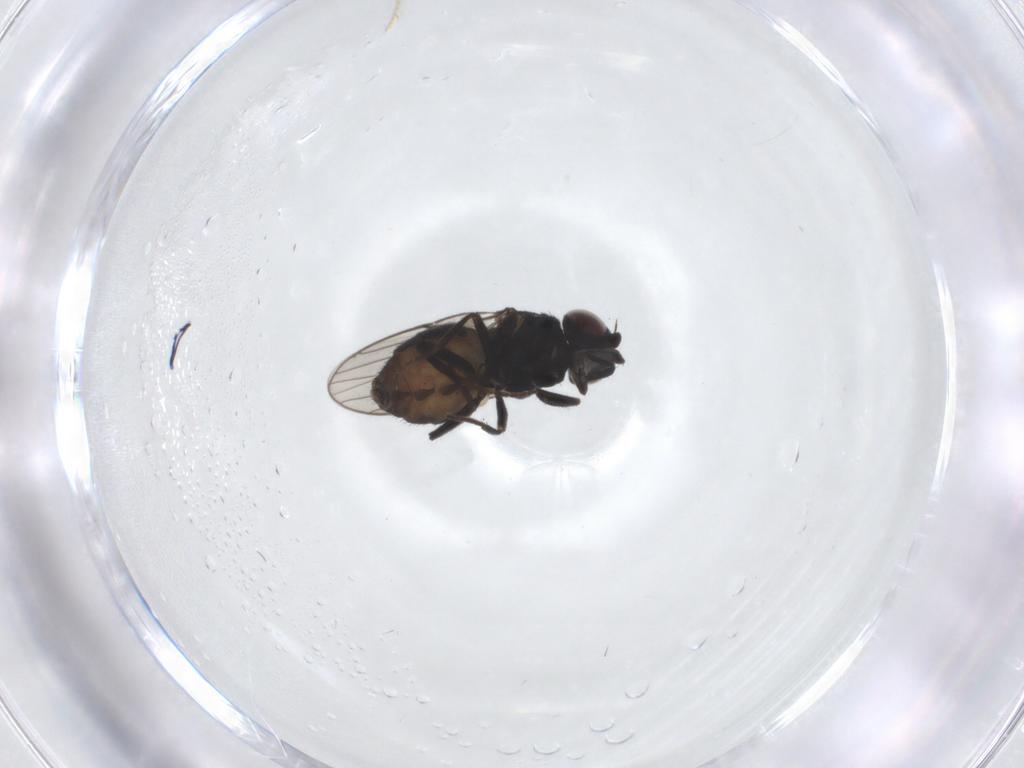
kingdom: Animalia
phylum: Arthropoda
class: Insecta
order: Diptera
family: Chloropidae
